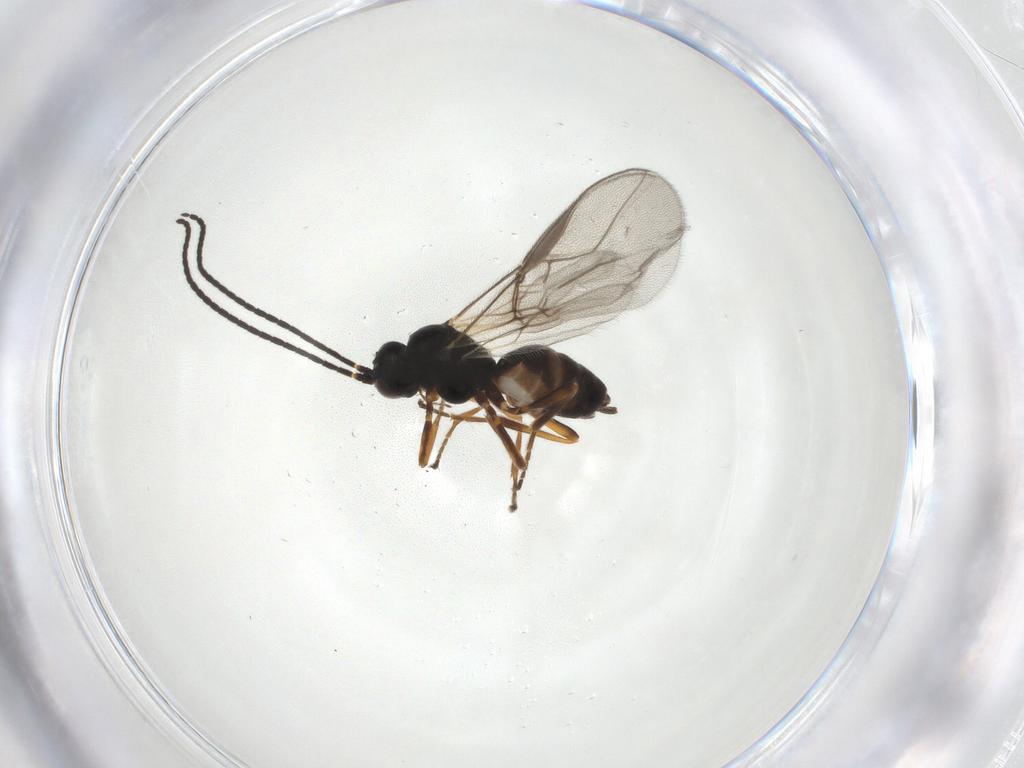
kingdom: Animalia
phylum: Arthropoda
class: Insecta
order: Hymenoptera
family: Braconidae
